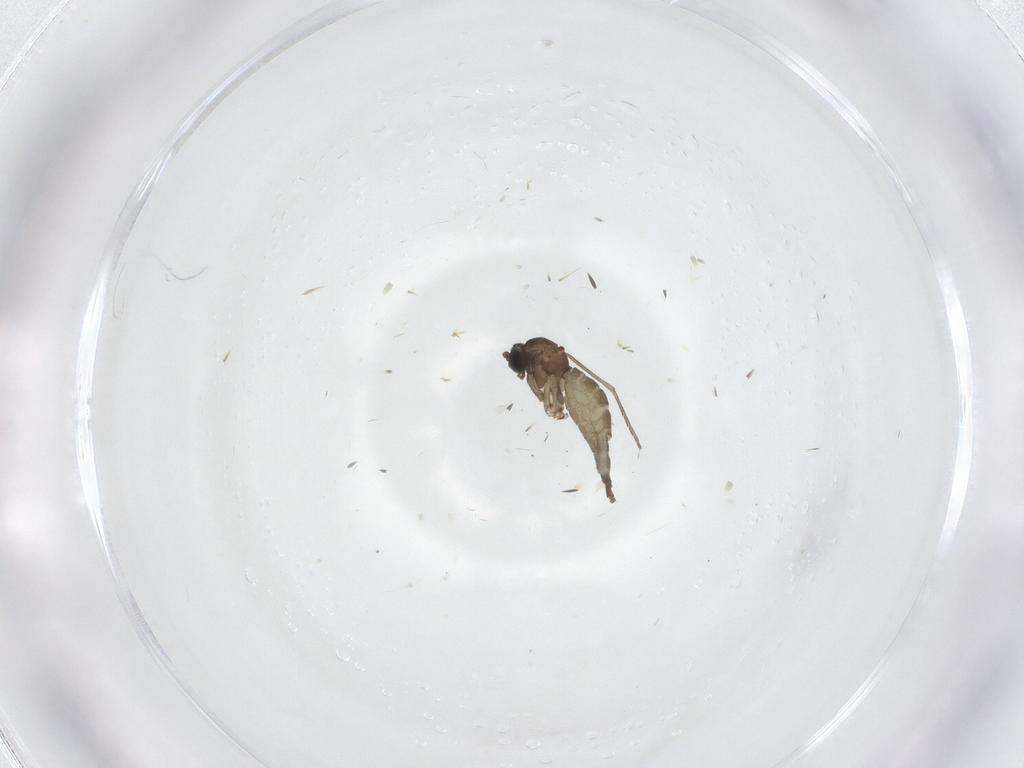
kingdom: Animalia
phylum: Arthropoda
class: Insecta
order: Diptera
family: Sciaridae
